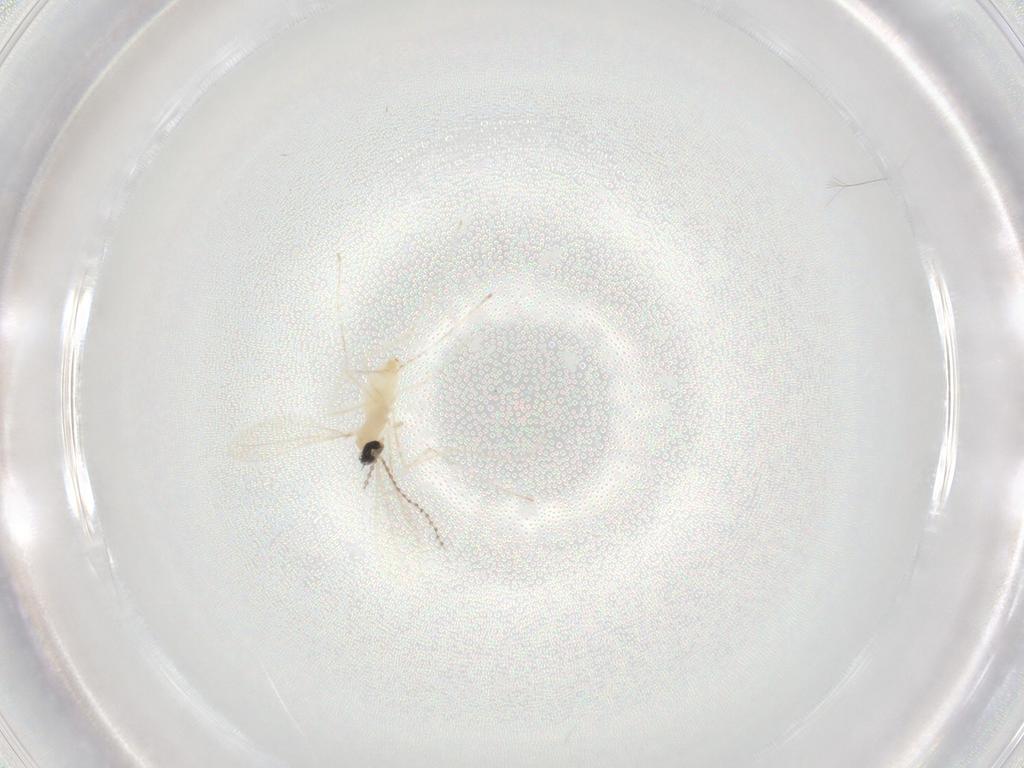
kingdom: Animalia
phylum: Arthropoda
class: Insecta
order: Diptera
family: Cecidomyiidae
